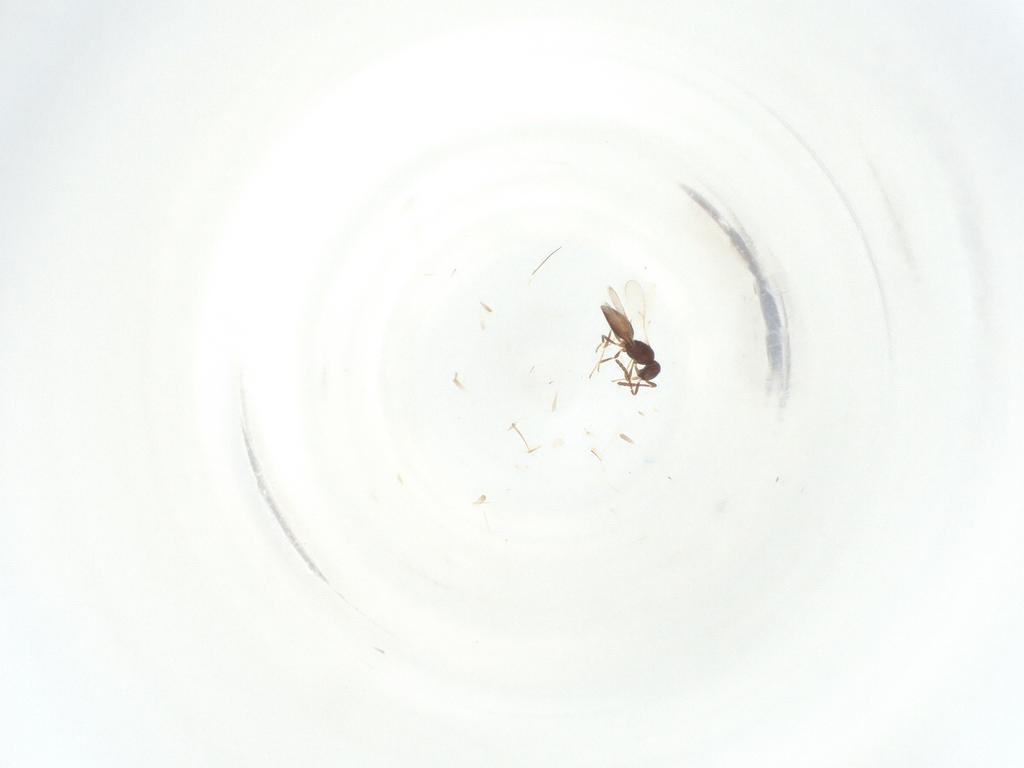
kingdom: Animalia
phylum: Arthropoda
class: Insecta
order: Hymenoptera
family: Scelionidae
